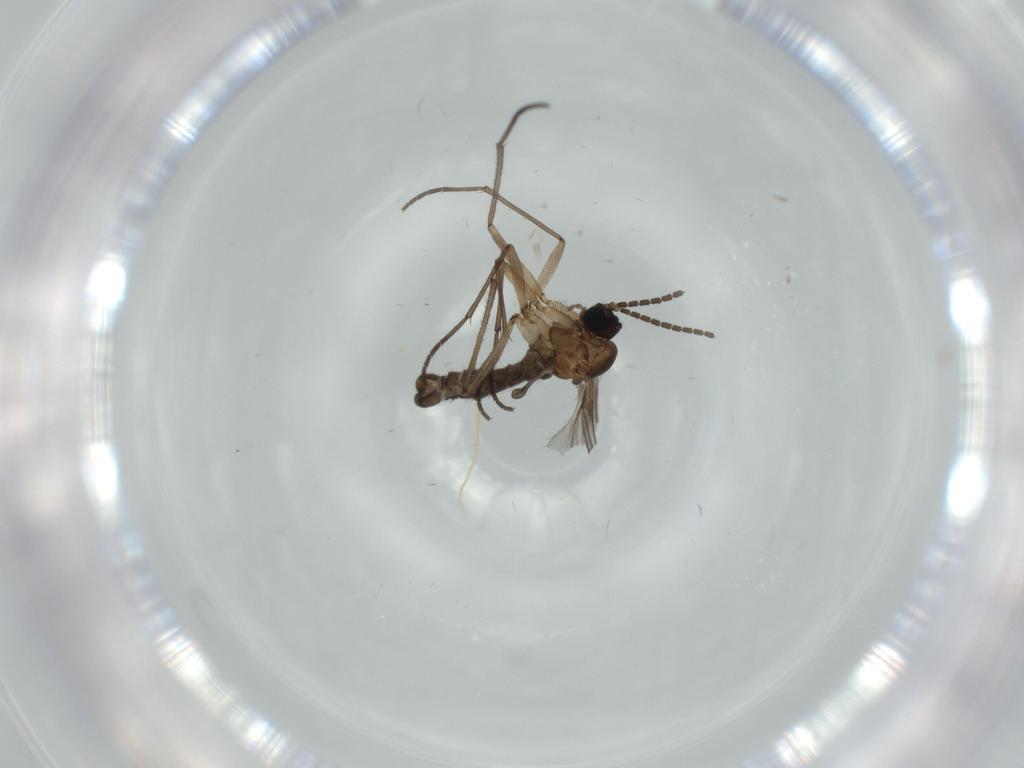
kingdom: Animalia
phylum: Arthropoda
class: Insecta
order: Diptera
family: Sciaridae
